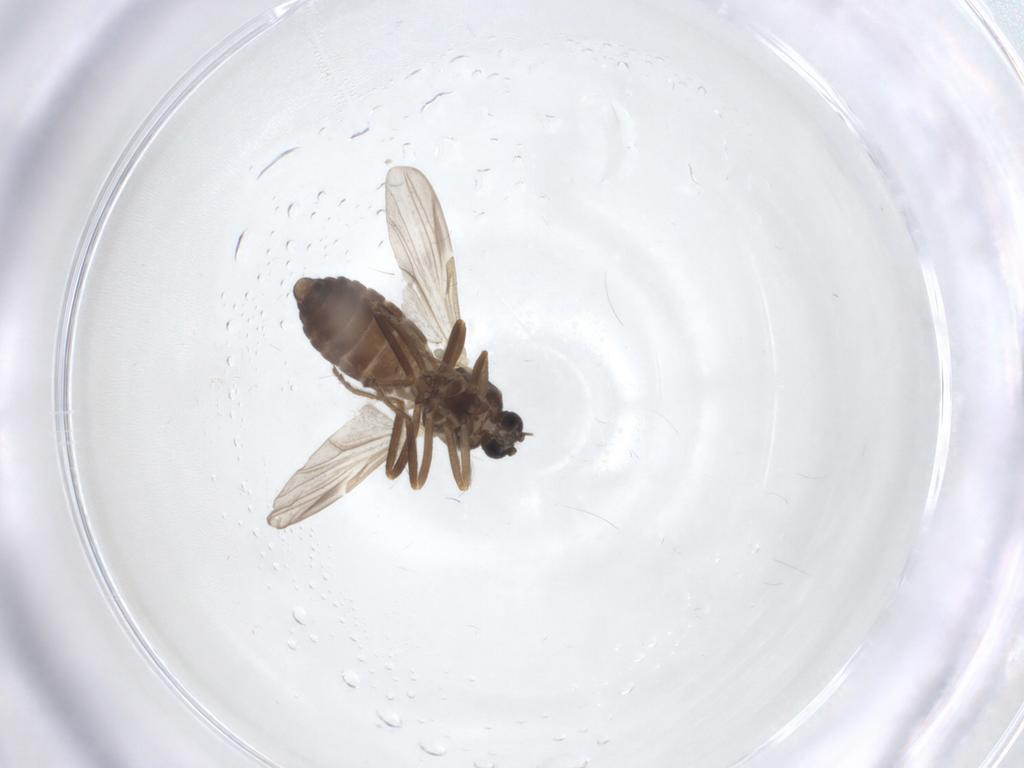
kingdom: Animalia
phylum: Arthropoda
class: Insecta
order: Diptera
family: Ceratopogonidae
